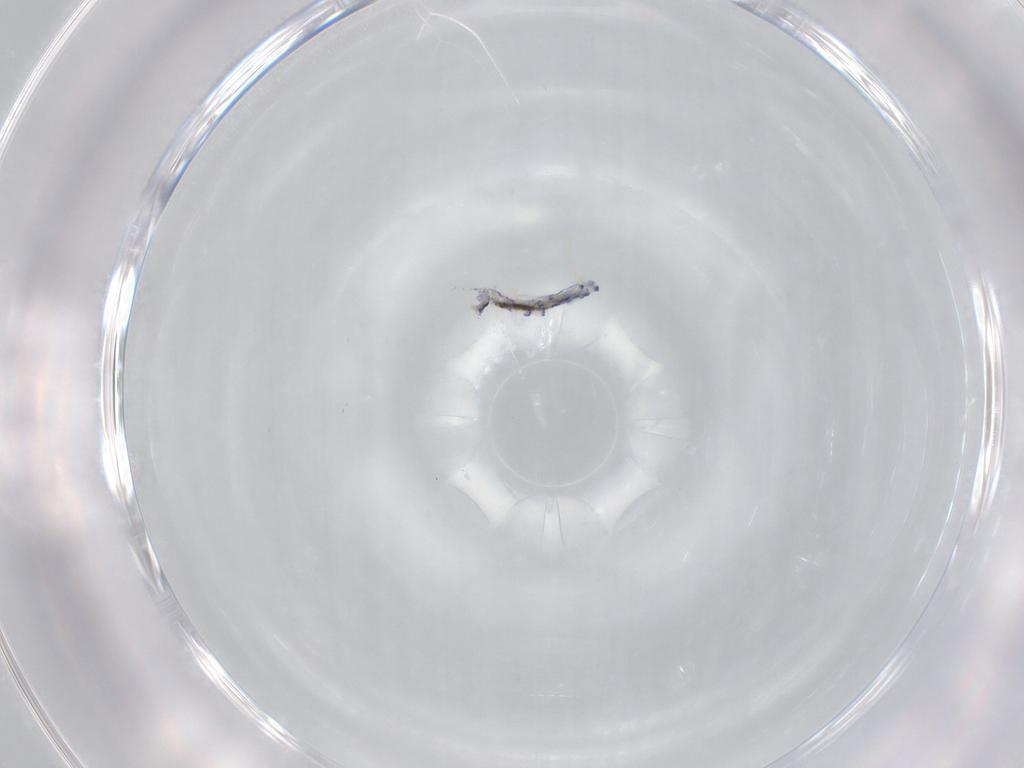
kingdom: Animalia
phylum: Arthropoda
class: Collembola
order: Entomobryomorpha
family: Entomobryidae
